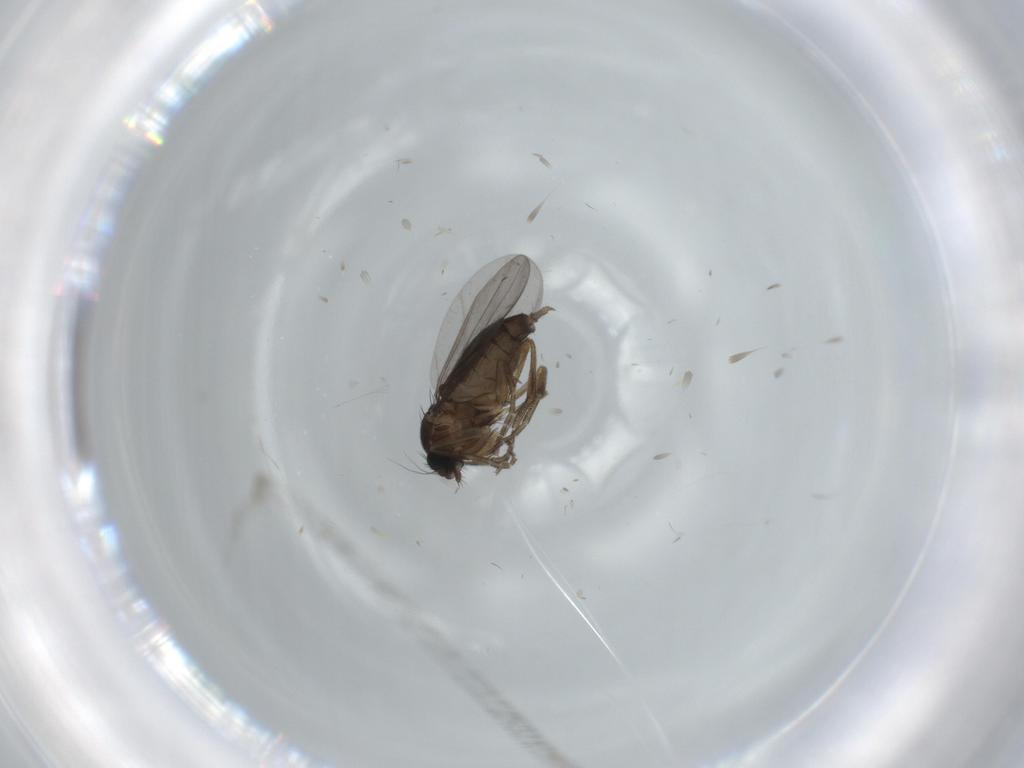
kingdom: Animalia
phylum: Arthropoda
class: Insecta
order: Diptera
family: Phoridae
